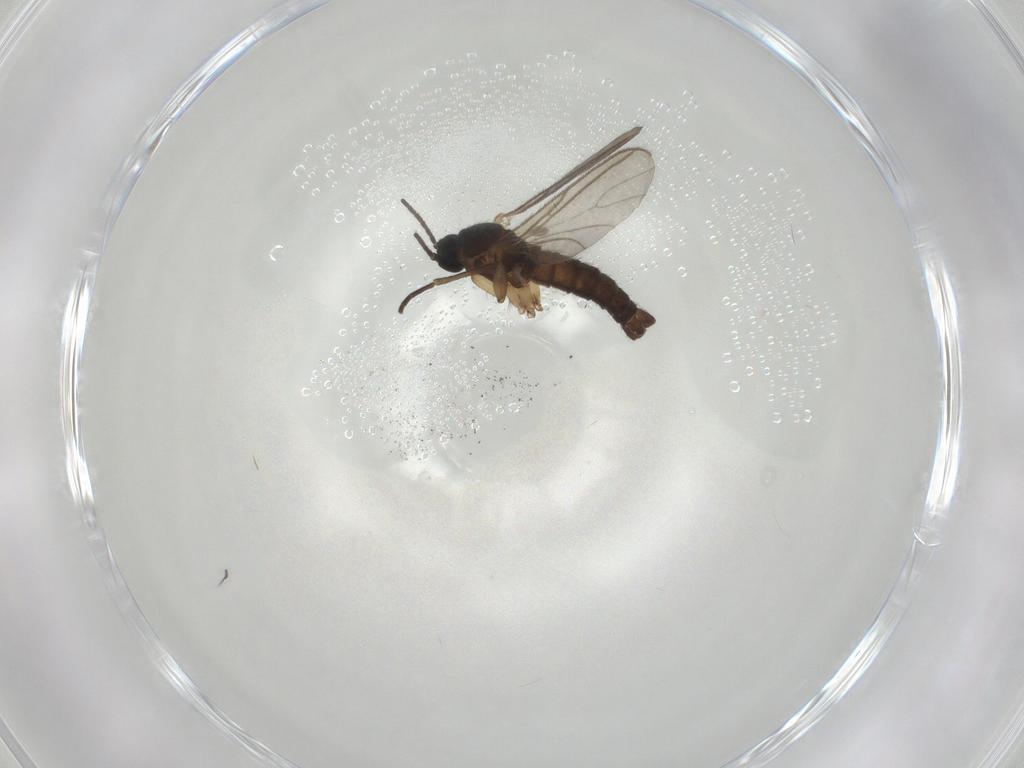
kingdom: Animalia
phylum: Arthropoda
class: Insecta
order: Diptera
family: Sciaridae
